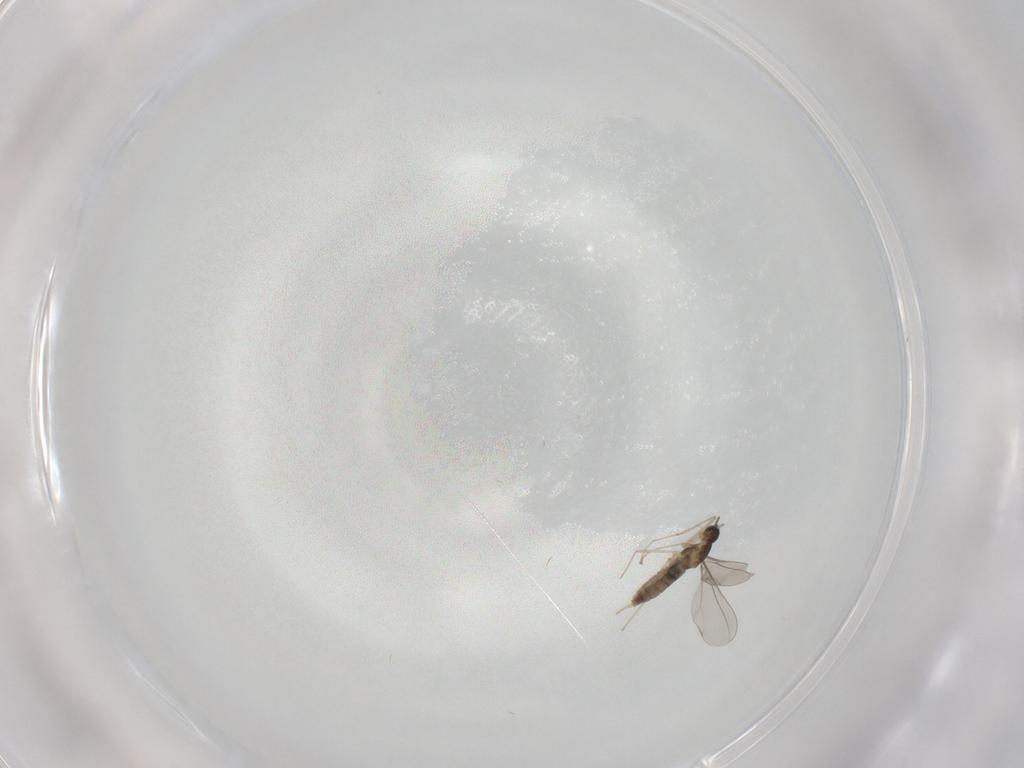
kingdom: Animalia
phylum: Arthropoda
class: Insecta
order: Diptera
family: Cecidomyiidae
